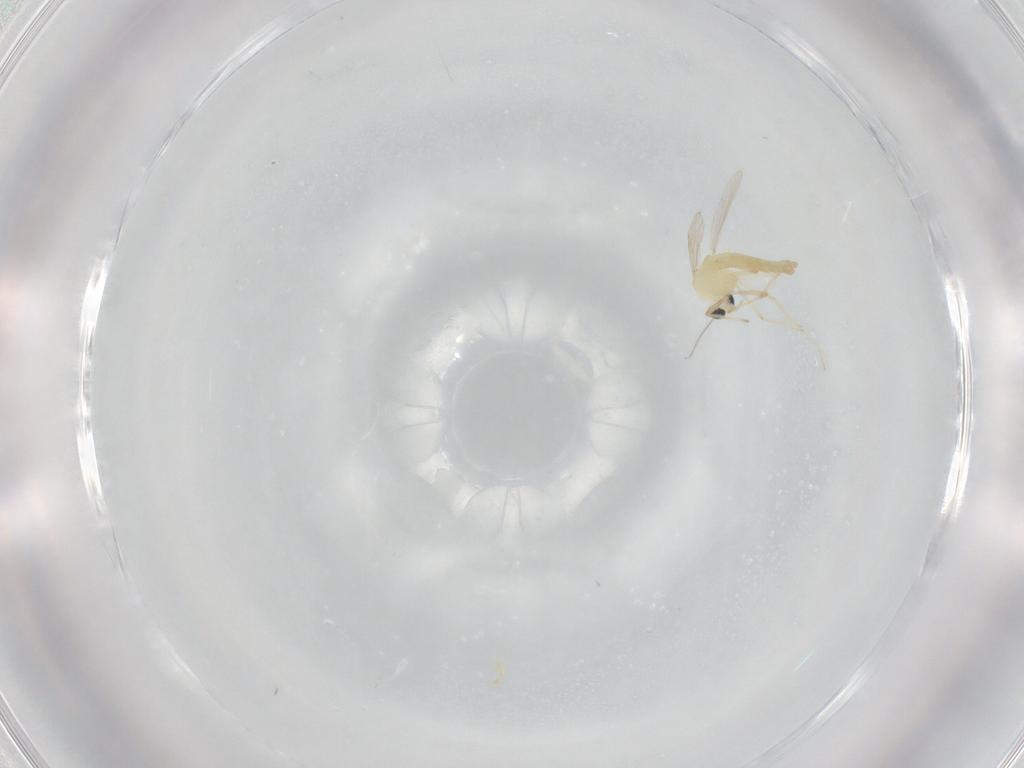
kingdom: Animalia
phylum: Arthropoda
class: Insecta
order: Diptera
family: Chironomidae
